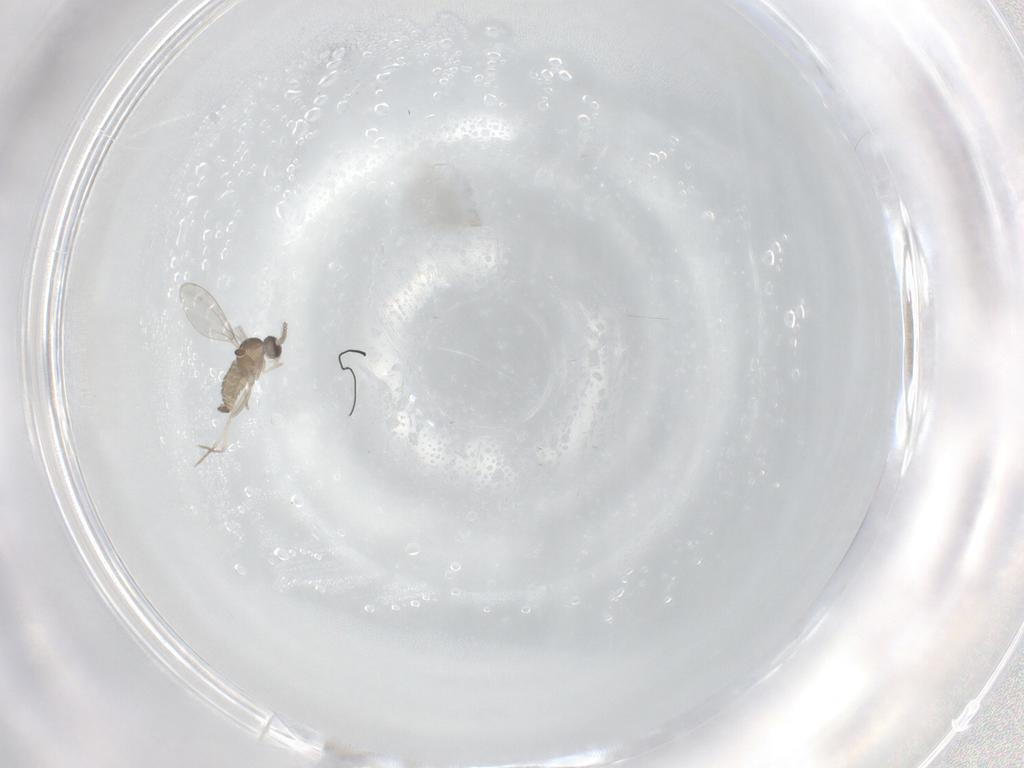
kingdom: Animalia
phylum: Arthropoda
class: Insecta
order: Diptera
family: Cecidomyiidae
